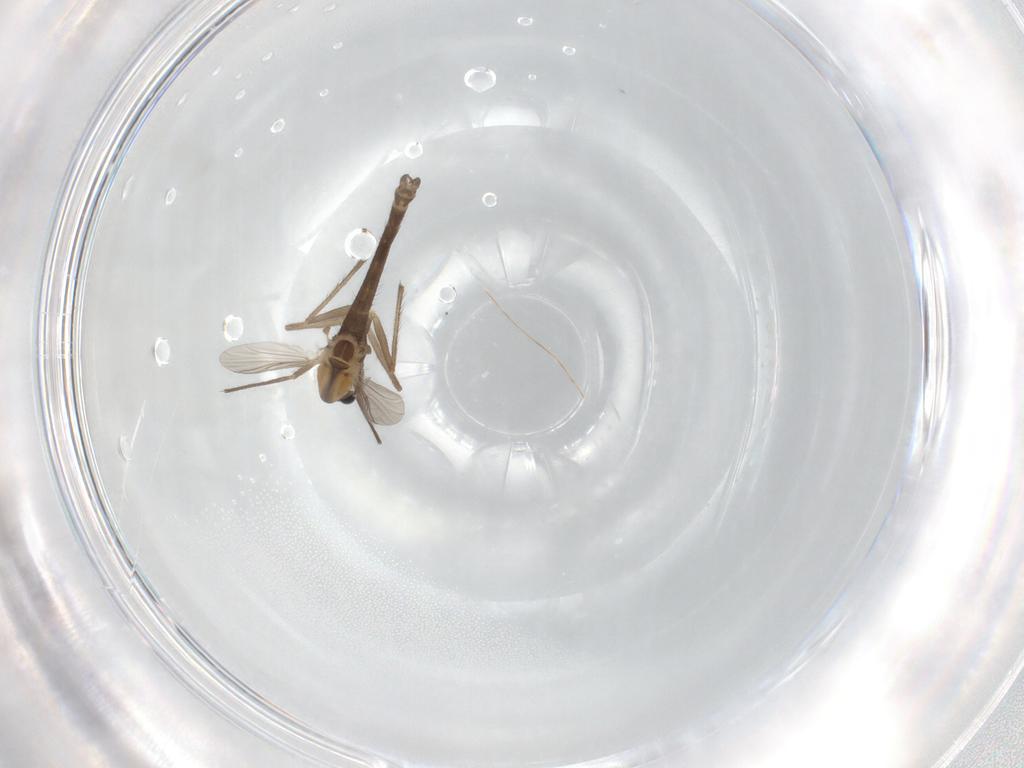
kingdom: Animalia
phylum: Arthropoda
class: Insecta
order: Diptera
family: Chironomidae
